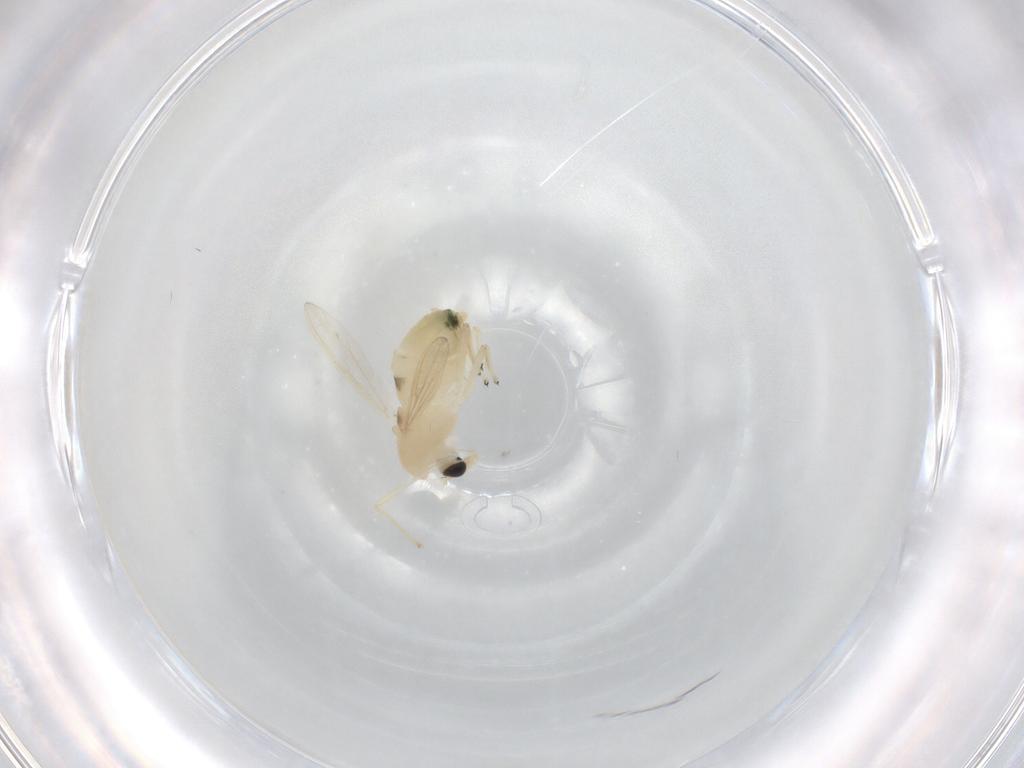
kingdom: Animalia
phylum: Arthropoda
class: Insecta
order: Diptera
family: Chironomidae
